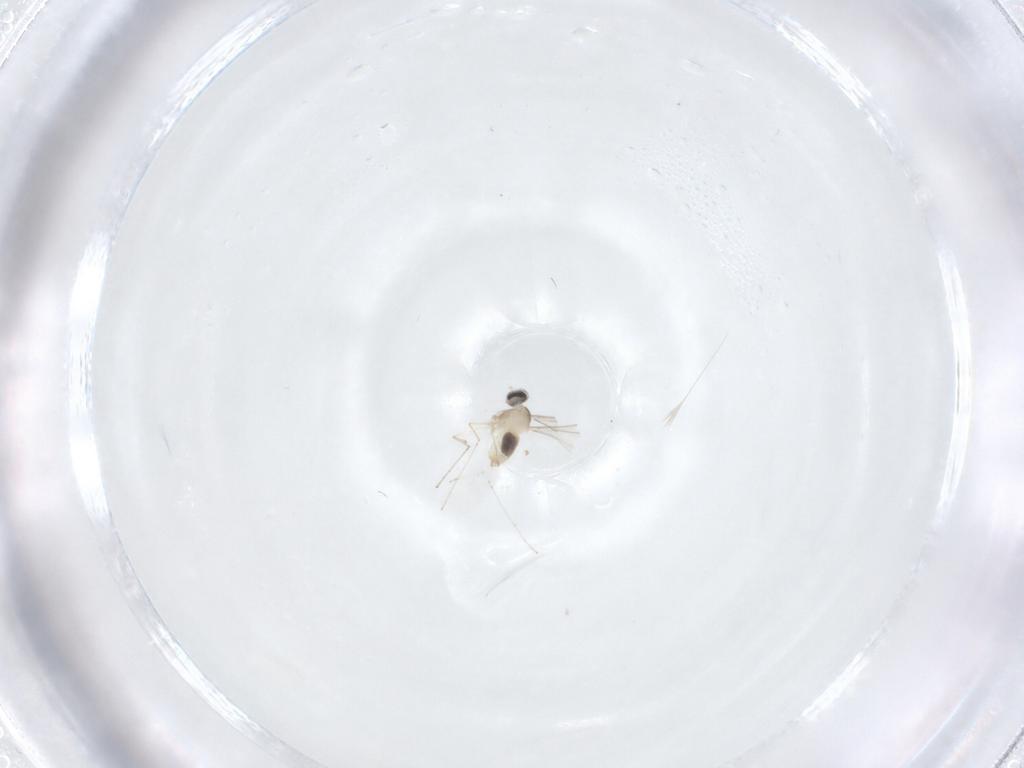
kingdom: Animalia
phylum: Arthropoda
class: Insecta
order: Diptera
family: Cecidomyiidae
